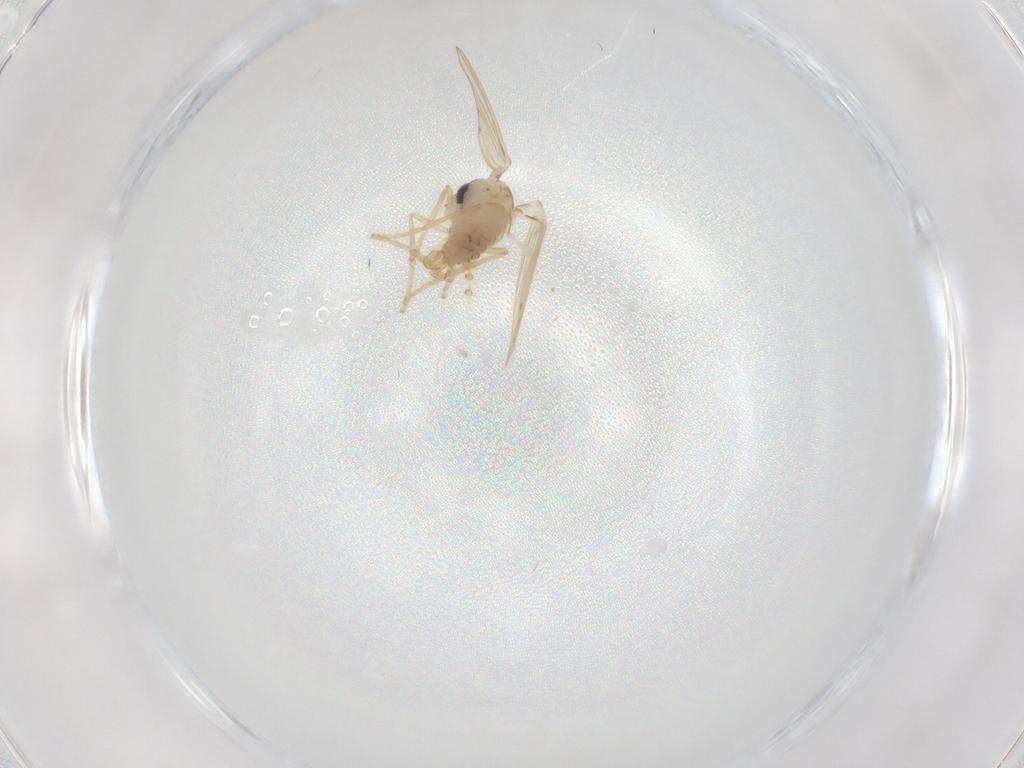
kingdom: Animalia
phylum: Arthropoda
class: Insecta
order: Diptera
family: Psychodidae
